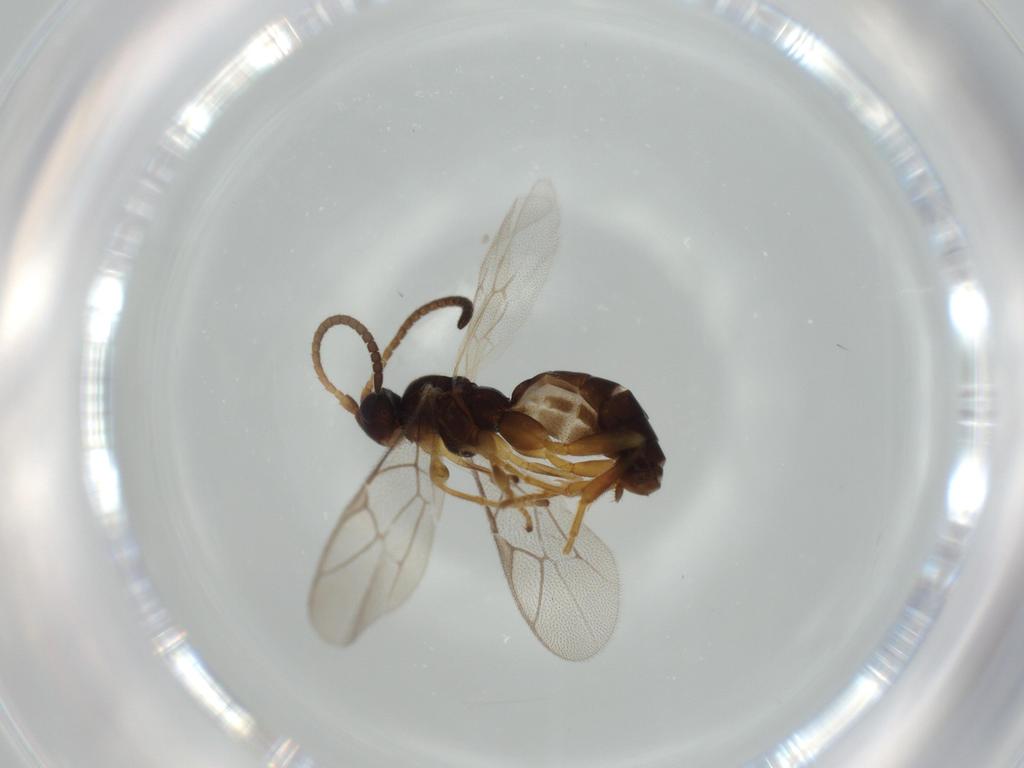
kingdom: Animalia
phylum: Arthropoda
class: Insecta
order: Hymenoptera
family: Ichneumonidae
